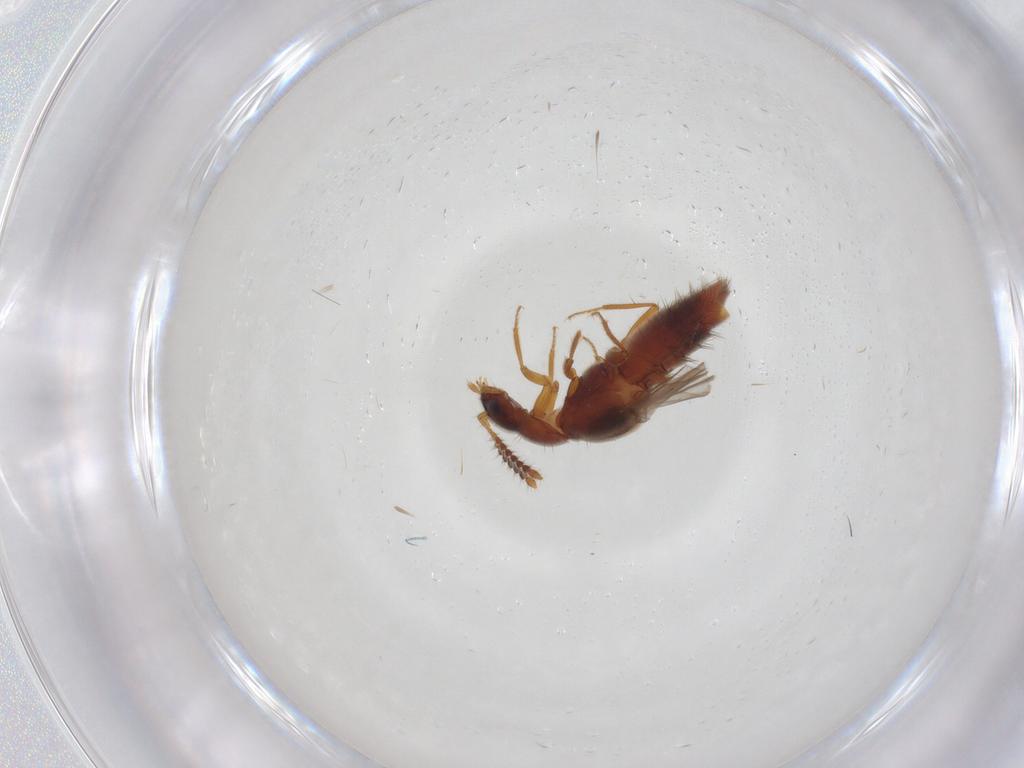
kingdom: Animalia
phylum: Arthropoda
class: Insecta
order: Coleoptera
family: Staphylinidae
